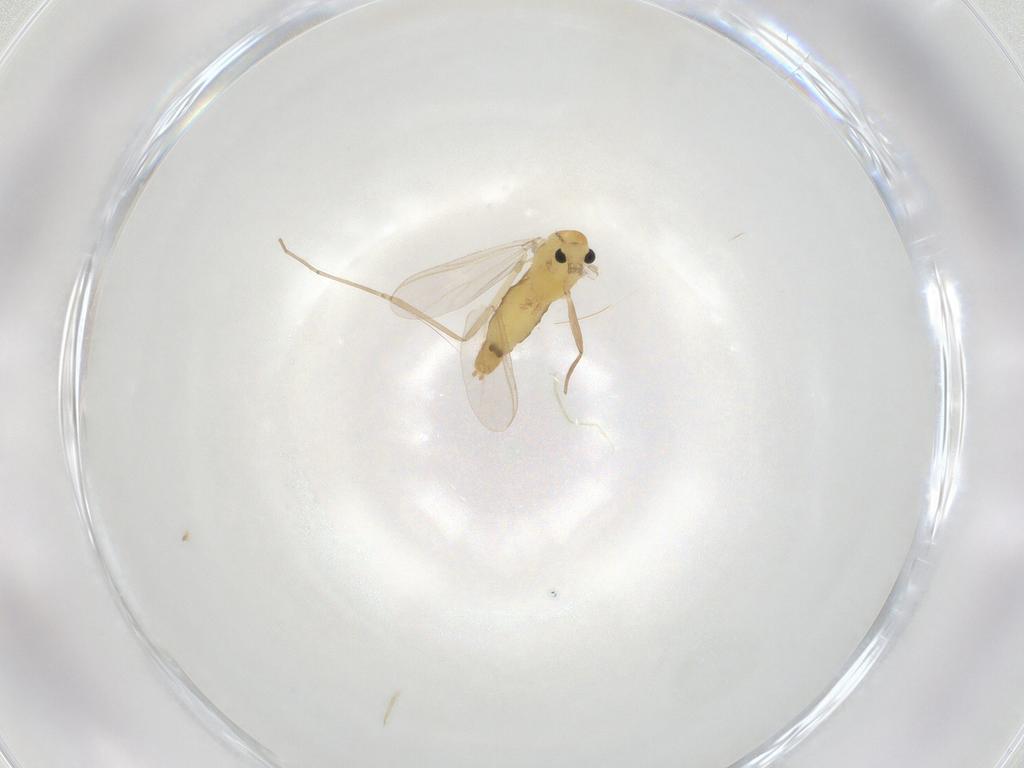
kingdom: Animalia
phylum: Arthropoda
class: Insecta
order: Diptera
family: Chironomidae
